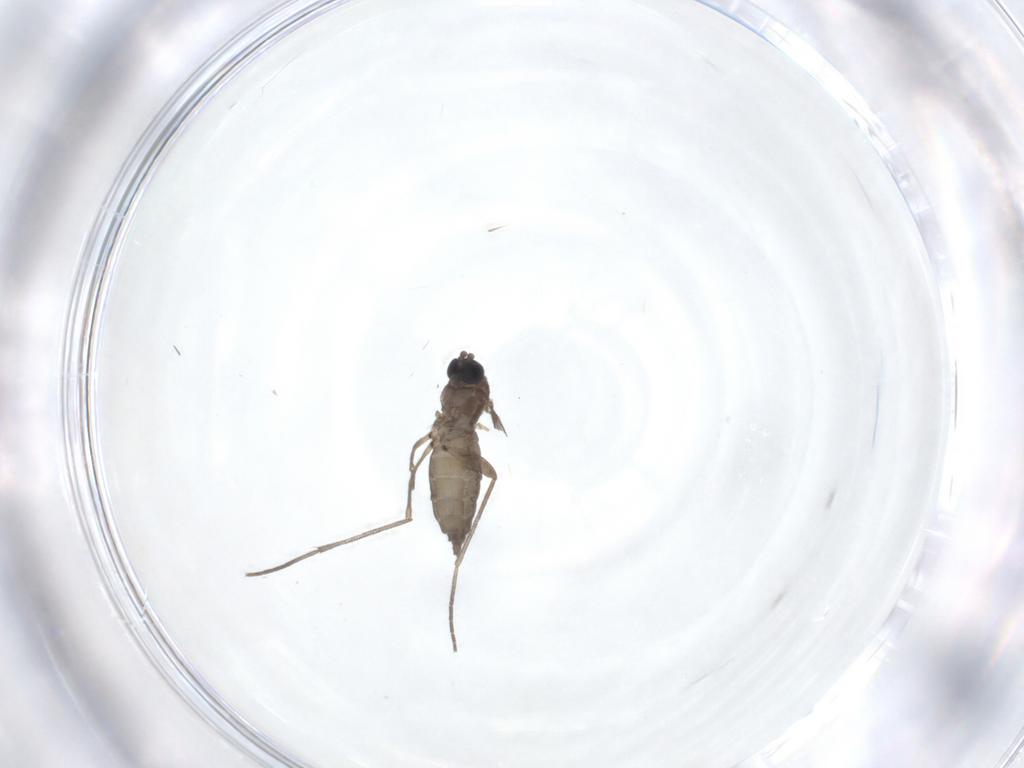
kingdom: Animalia
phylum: Arthropoda
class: Insecta
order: Diptera
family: Sciaridae
